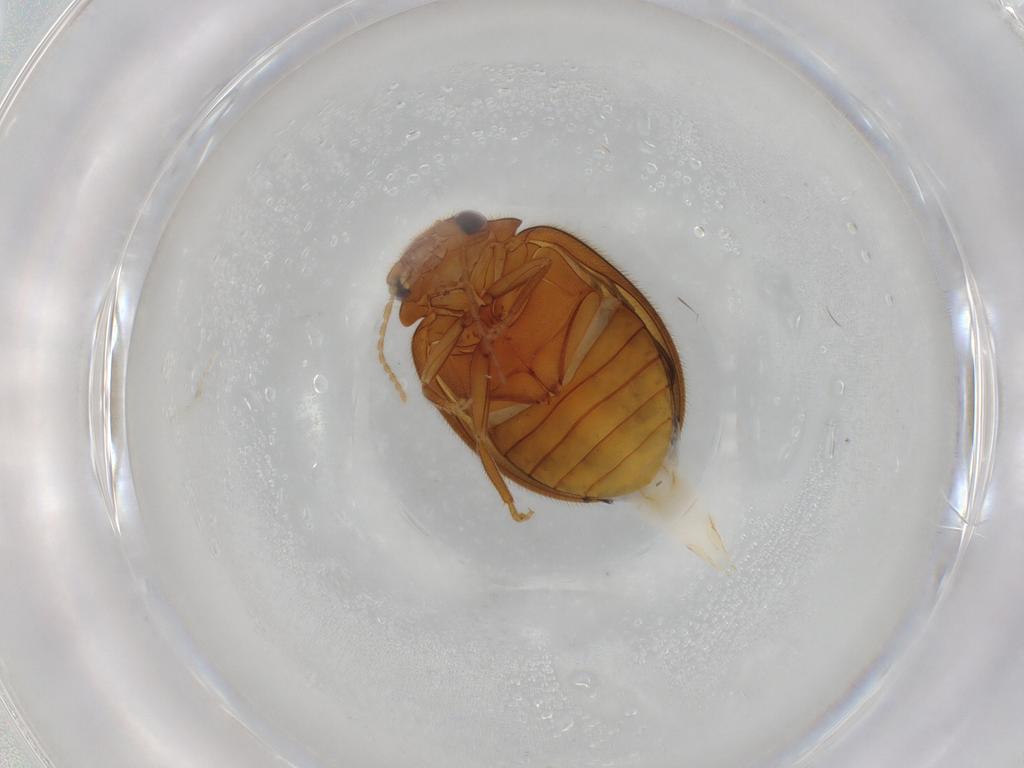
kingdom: Animalia
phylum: Arthropoda
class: Insecta
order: Coleoptera
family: Scirtidae
